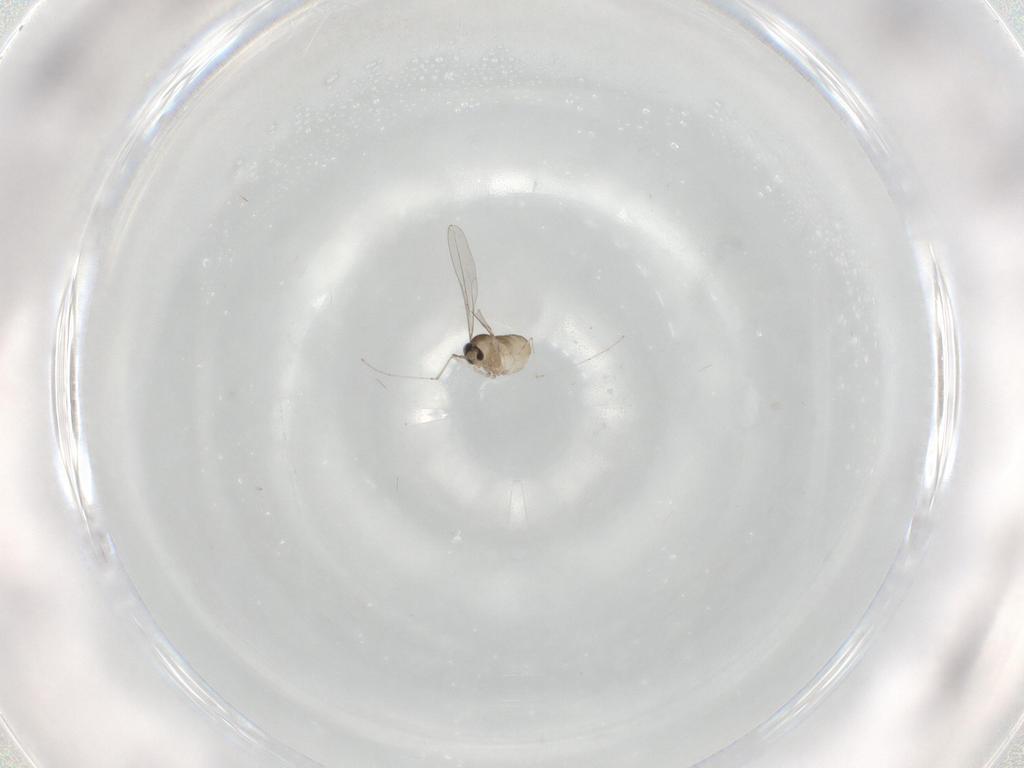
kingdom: Animalia
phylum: Arthropoda
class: Insecta
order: Diptera
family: Cecidomyiidae
